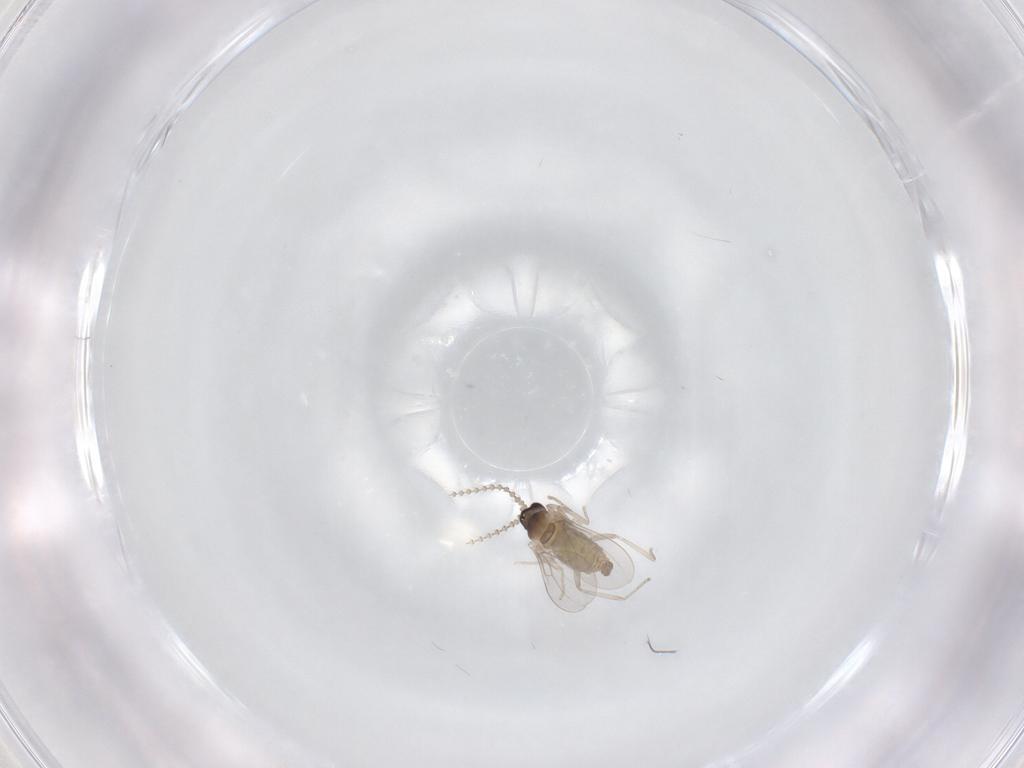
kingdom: Animalia
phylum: Arthropoda
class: Insecta
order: Diptera
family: Cecidomyiidae
